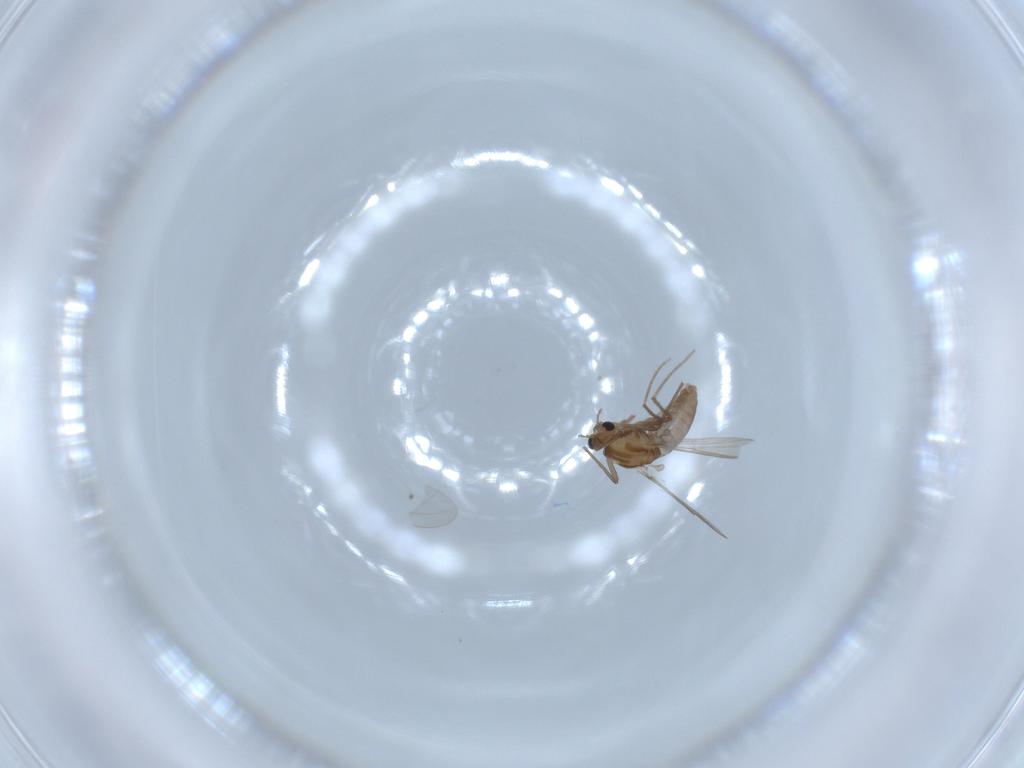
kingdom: Animalia
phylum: Arthropoda
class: Insecta
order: Diptera
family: Chironomidae
